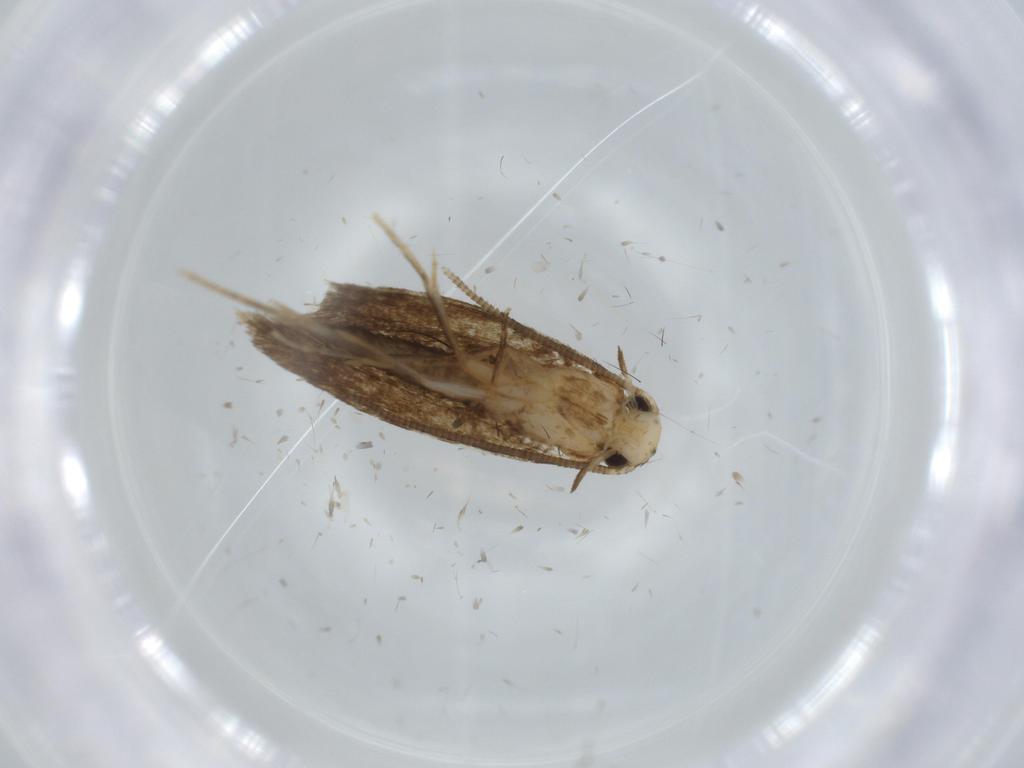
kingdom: Animalia
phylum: Arthropoda
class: Insecta
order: Lepidoptera
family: Tineidae
